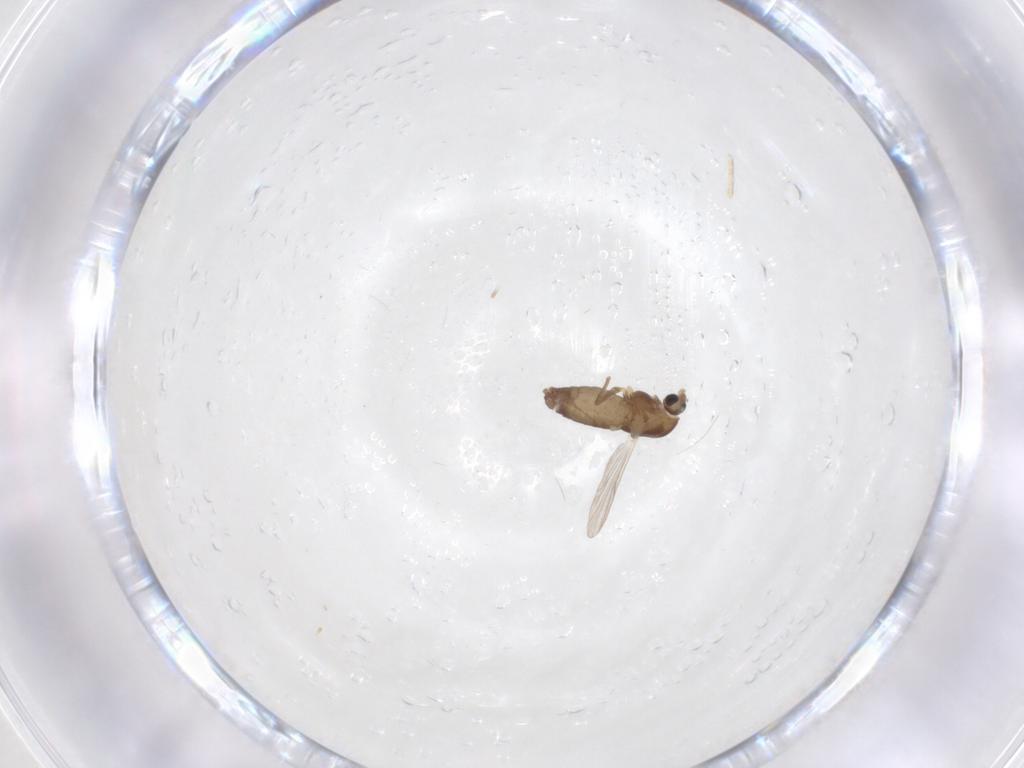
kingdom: Animalia
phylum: Arthropoda
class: Insecta
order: Diptera
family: Chironomidae
